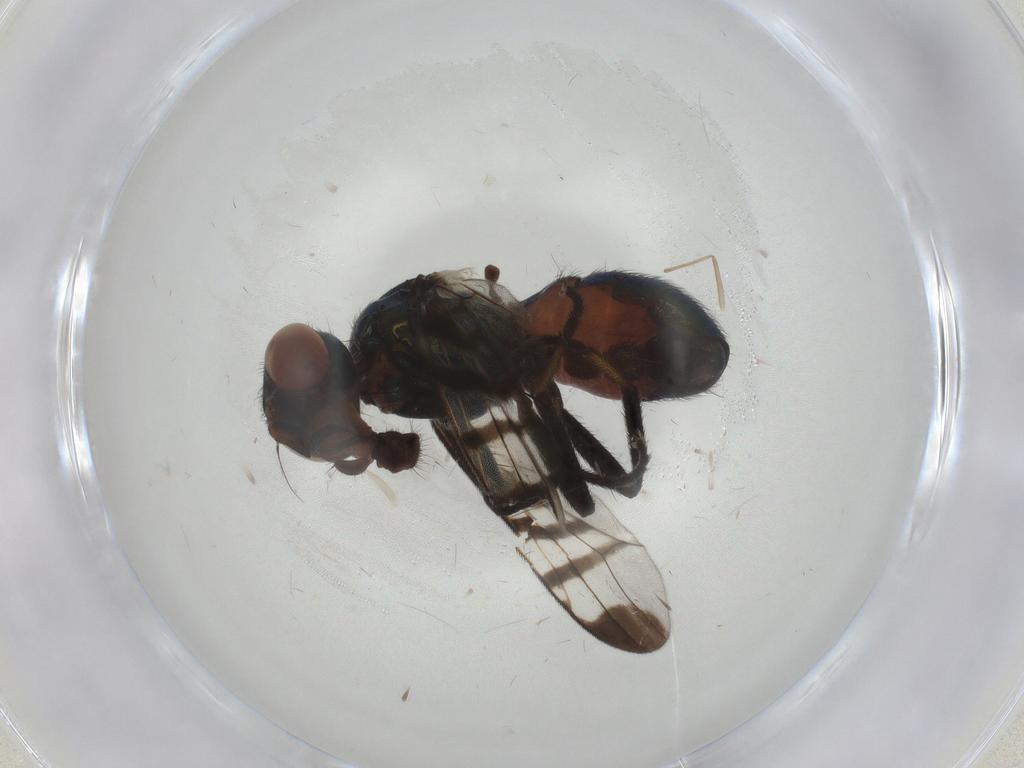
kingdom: Animalia
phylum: Arthropoda
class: Insecta
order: Diptera
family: Platystomatidae
